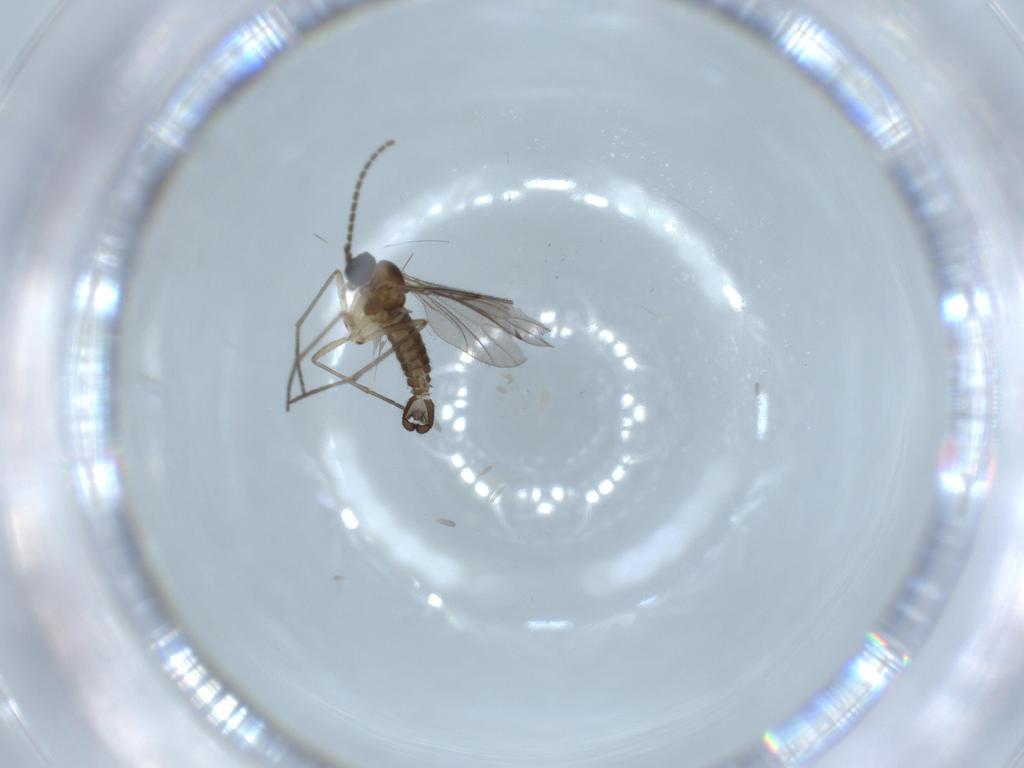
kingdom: Animalia
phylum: Arthropoda
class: Insecta
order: Diptera
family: Sciaridae
